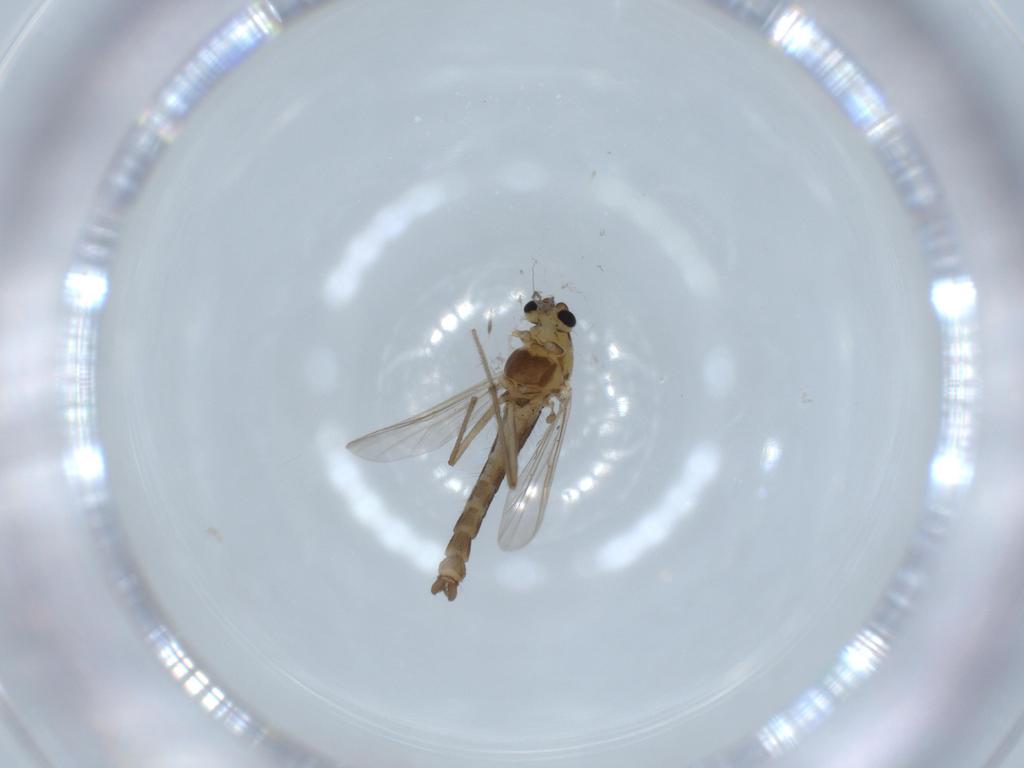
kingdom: Animalia
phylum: Arthropoda
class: Insecta
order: Diptera
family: Chironomidae
